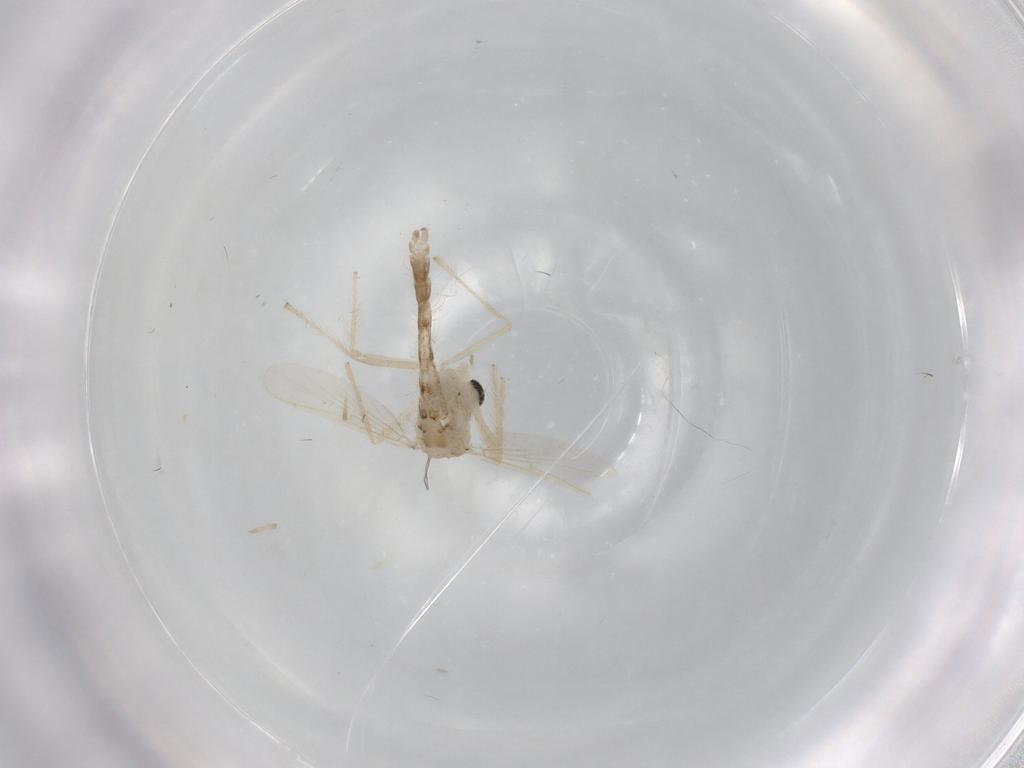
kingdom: Animalia
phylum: Arthropoda
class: Insecta
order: Diptera
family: Chironomidae
